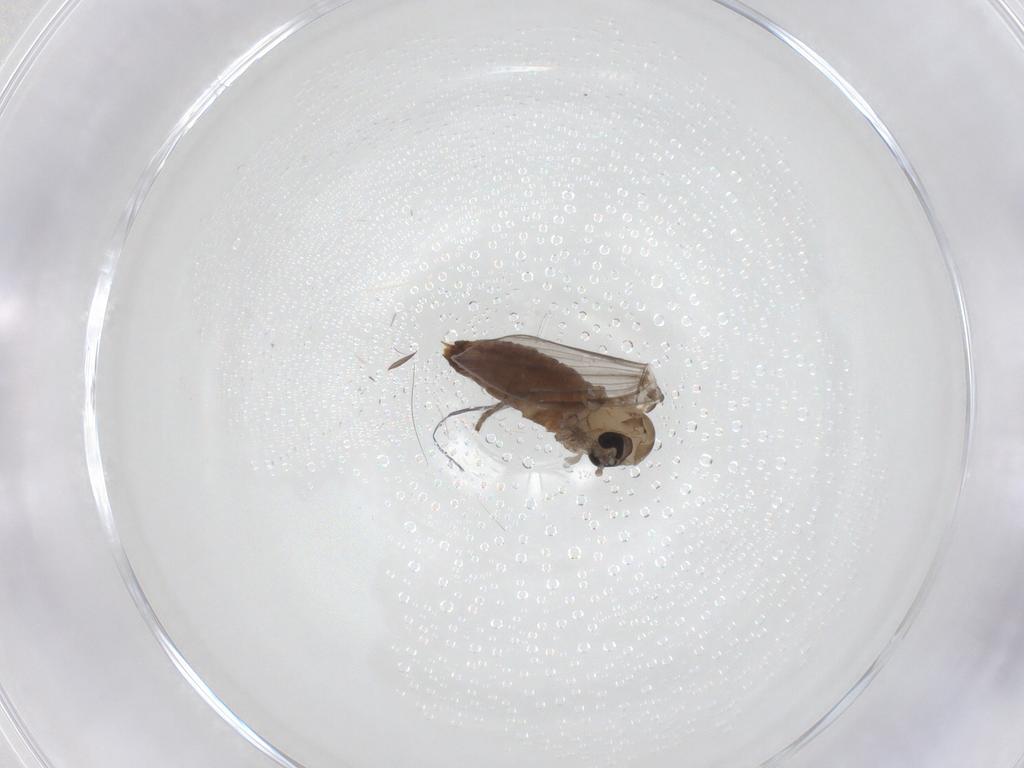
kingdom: Animalia
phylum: Arthropoda
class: Insecta
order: Diptera
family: Psychodidae
